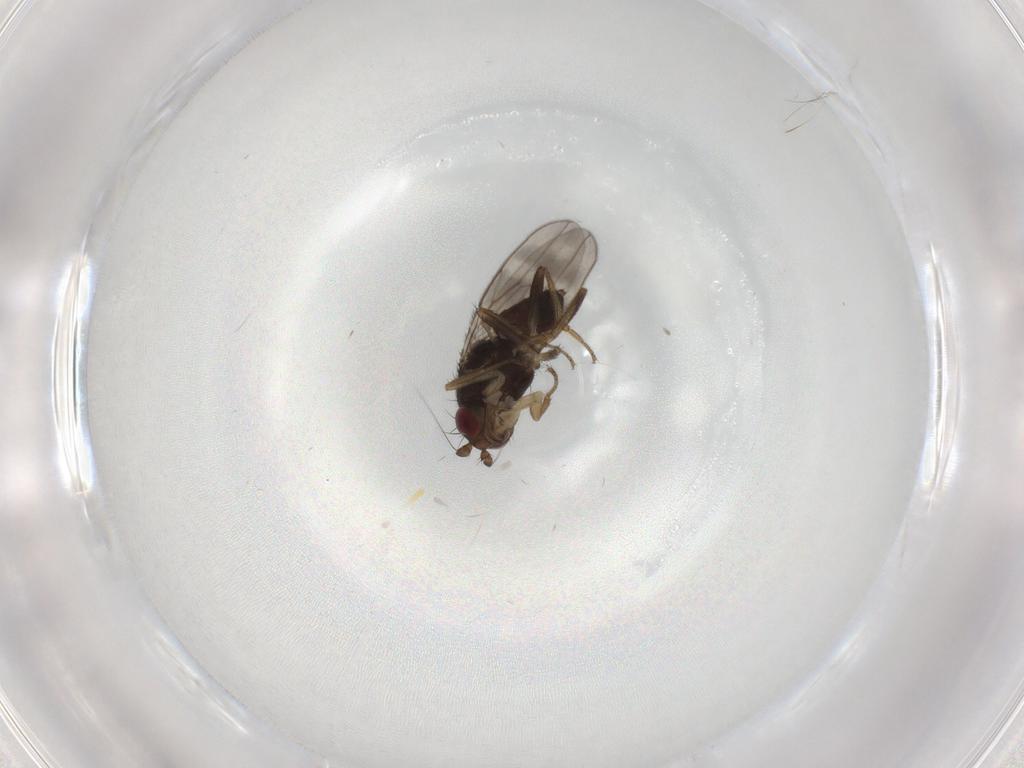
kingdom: Animalia
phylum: Arthropoda
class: Insecta
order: Diptera
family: Sphaeroceridae
